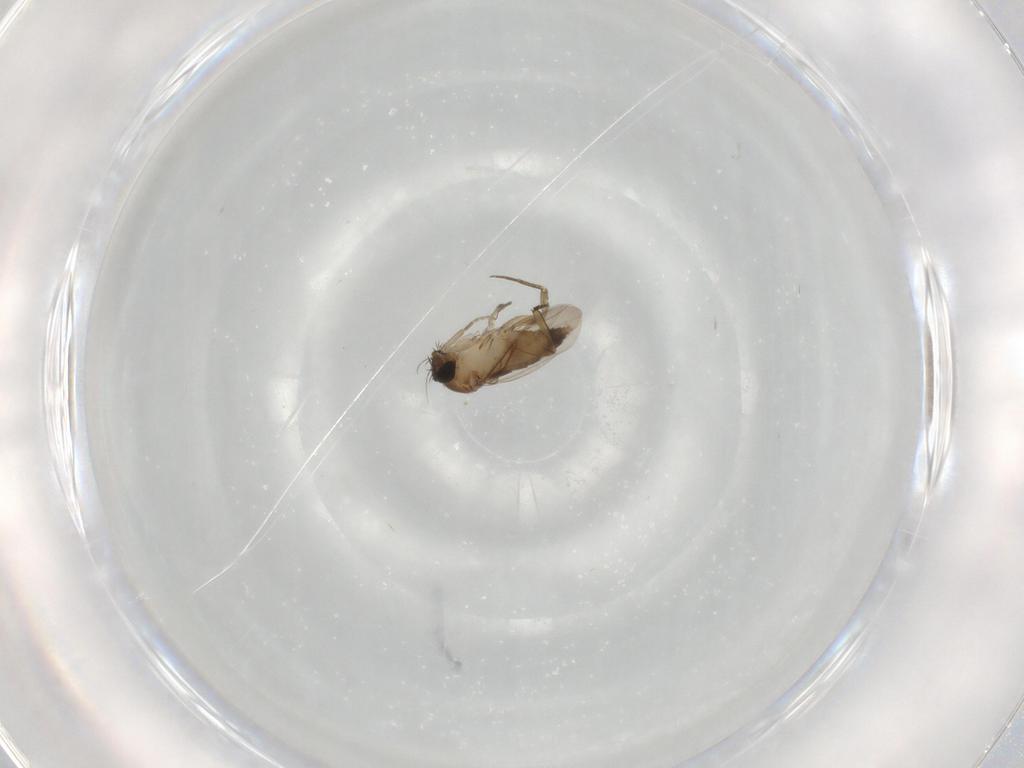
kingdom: Animalia
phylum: Arthropoda
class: Insecta
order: Diptera
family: Phoridae
